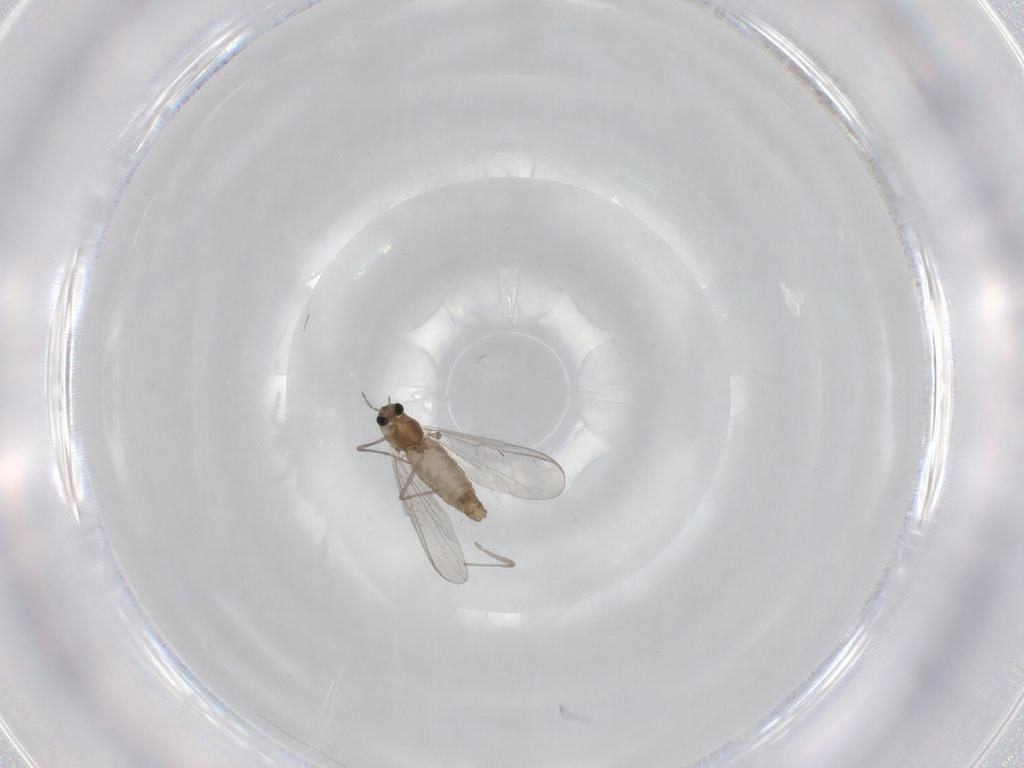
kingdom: Animalia
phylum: Arthropoda
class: Insecta
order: Diptera
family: Chironomidae
